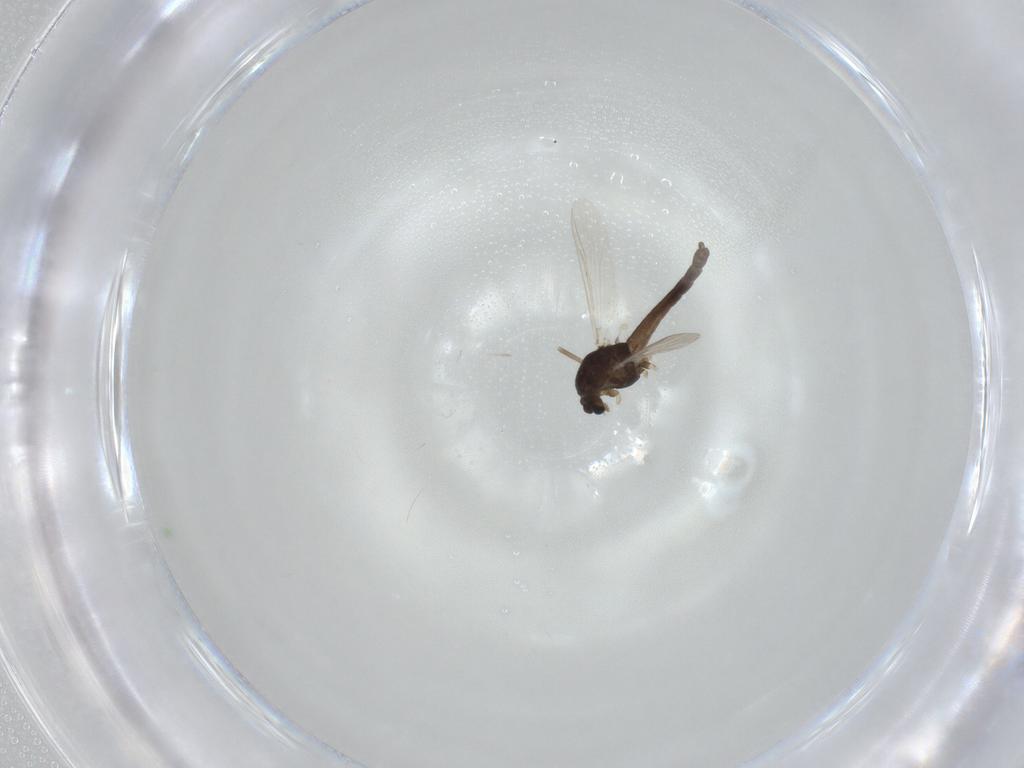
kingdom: Animalia
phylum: Arthropoda
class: Insecta
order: Diptera
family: Chironomidae
